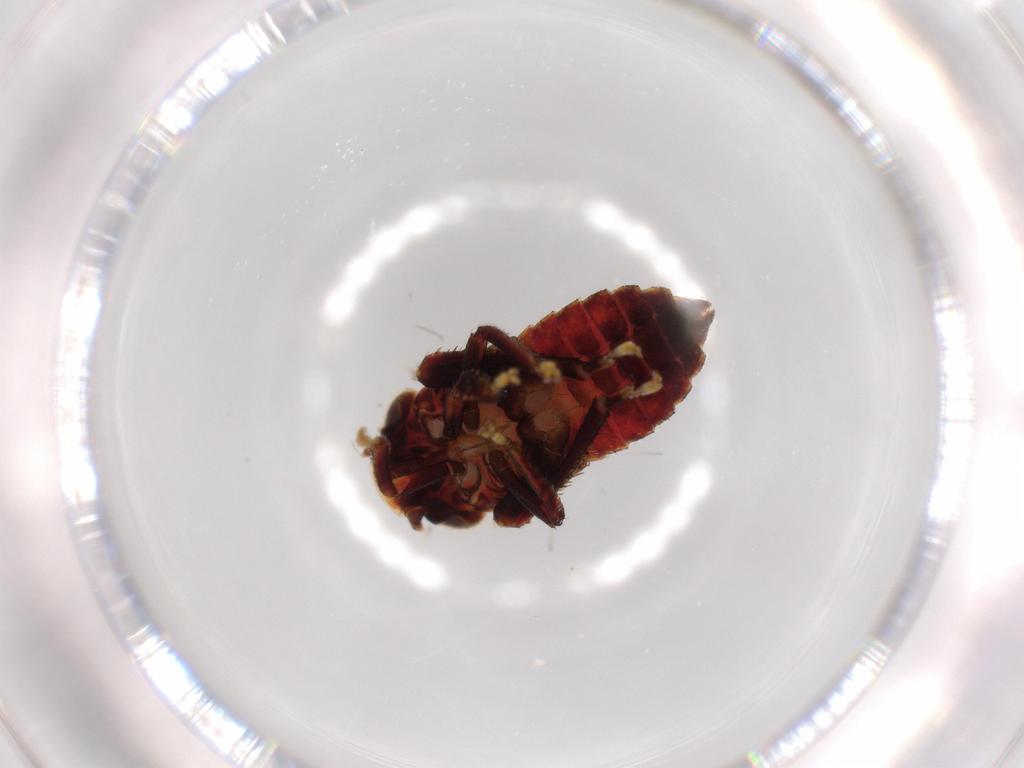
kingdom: Animalia
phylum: Arthropoda
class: Insecta
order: Hemiptera
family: Cicadellidae
